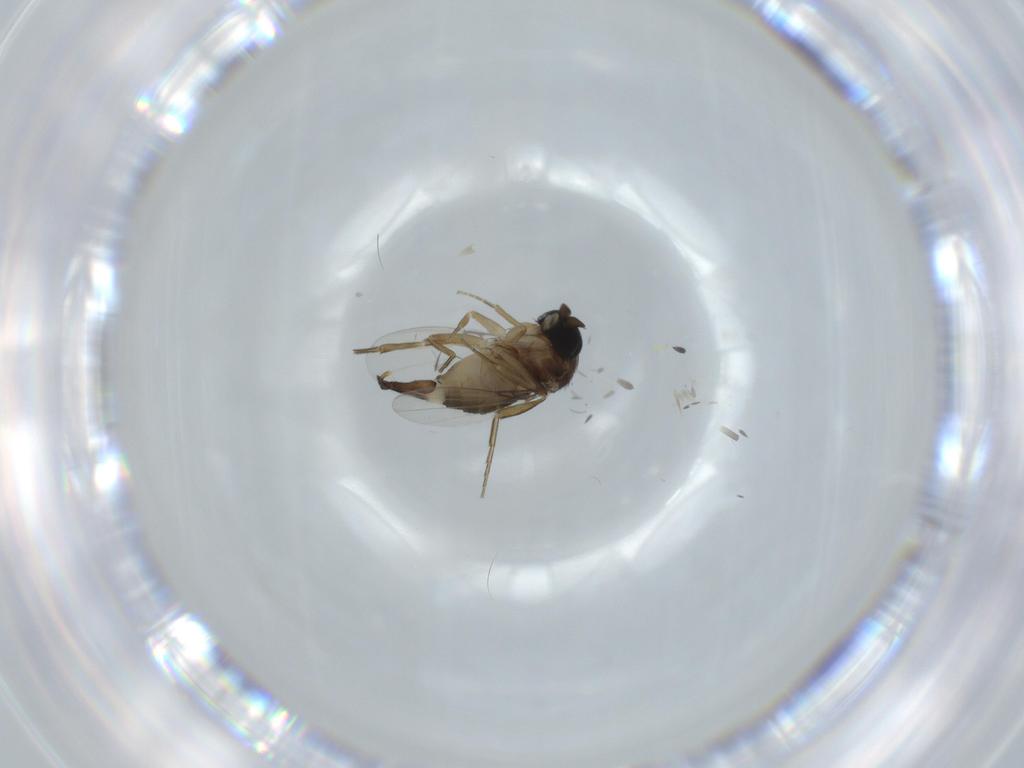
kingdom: Animalia
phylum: Arthropoda
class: Insecta
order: Diptera
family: Phoridae
